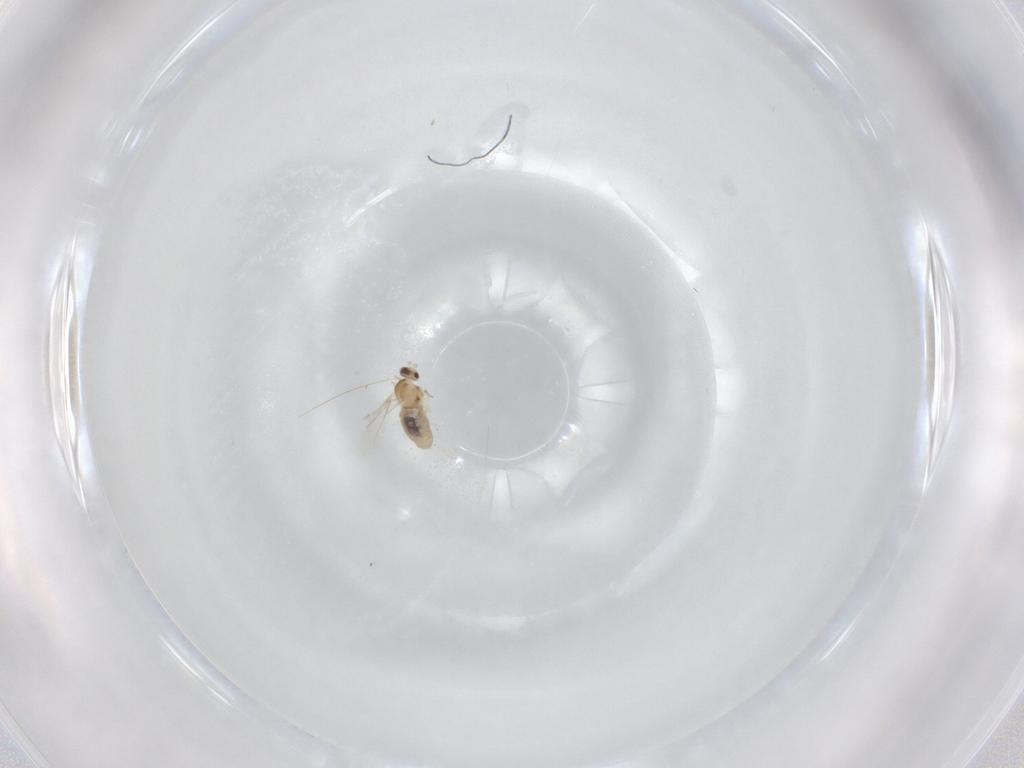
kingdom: Animalia
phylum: Arthropoda
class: Insecta
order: Diptera
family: Cecidomyiidae
